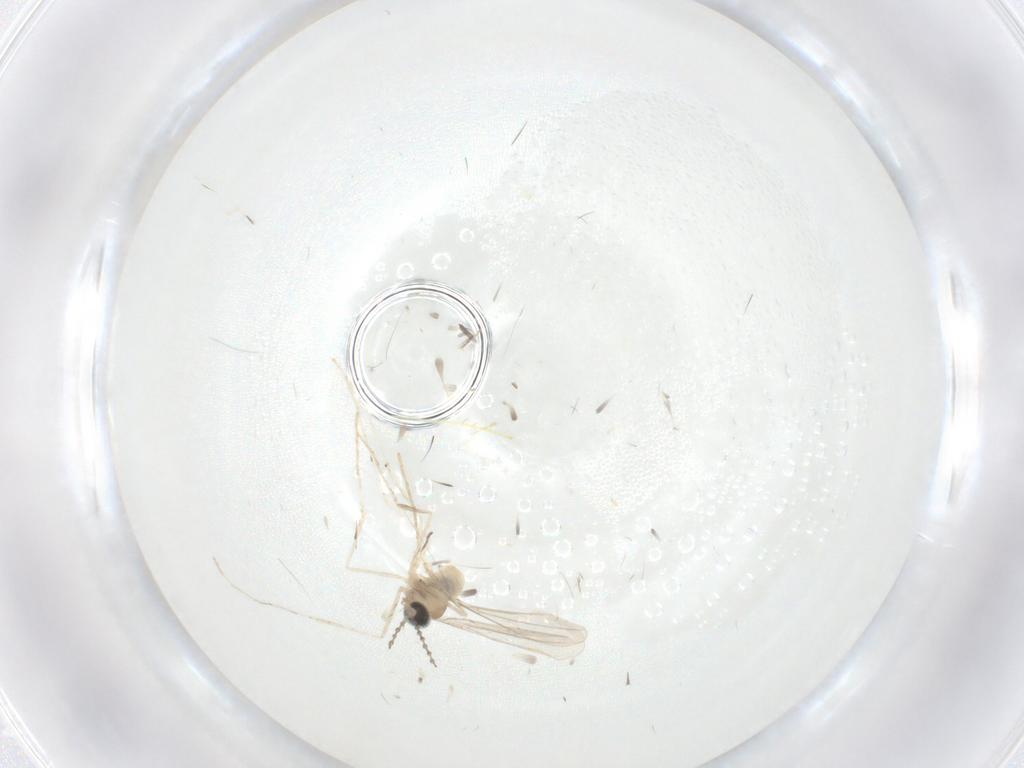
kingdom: Animalia
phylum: Arthropoda
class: Insecta
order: Diptera
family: Cecidomyiidae
